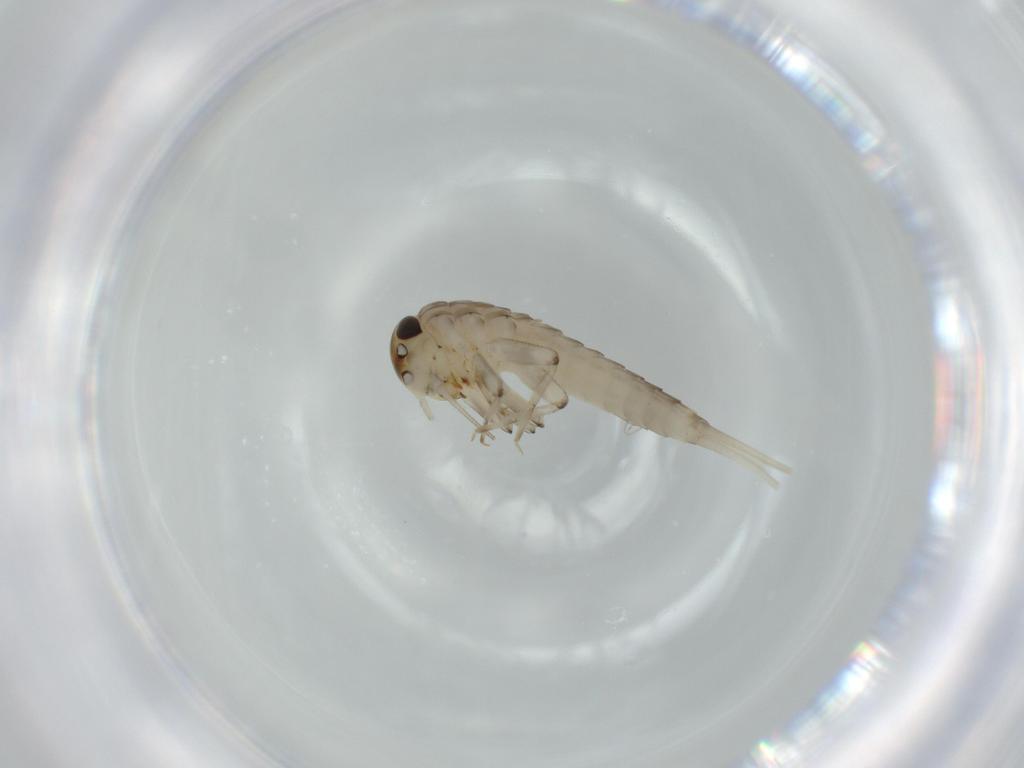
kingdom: Animalia
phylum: Arthropoda
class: Insecta
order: Ephemeroptera
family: Baetidae
